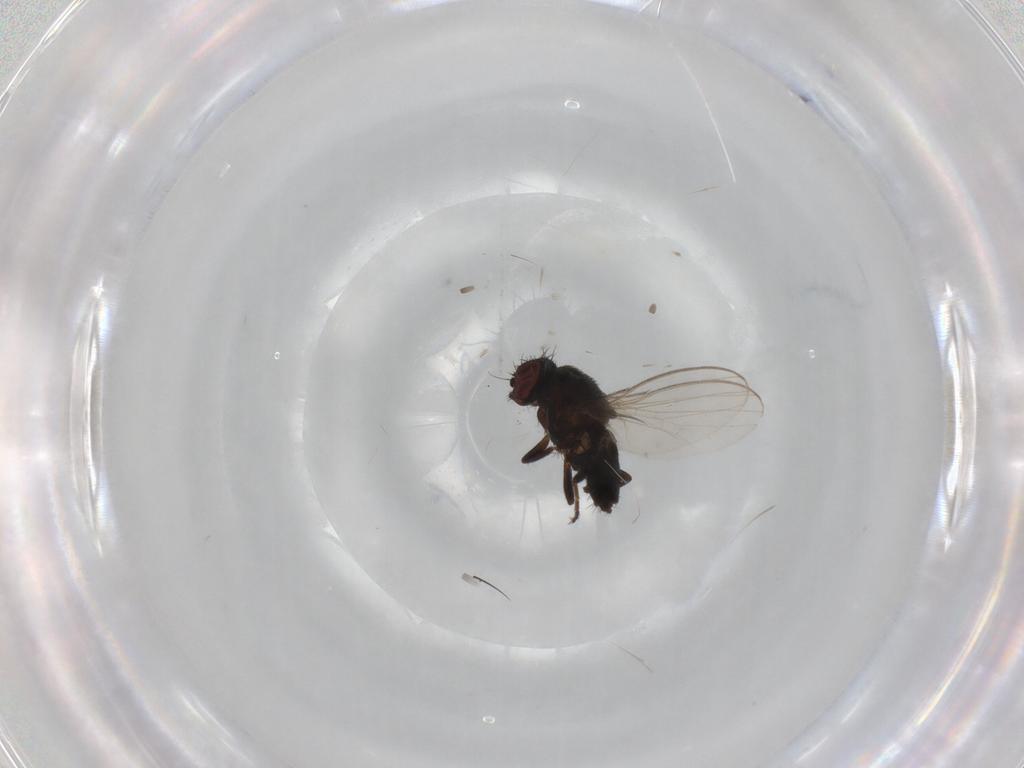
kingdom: Animalia
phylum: Arthropoda
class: Insecta
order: Diptera
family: Milichiidae
